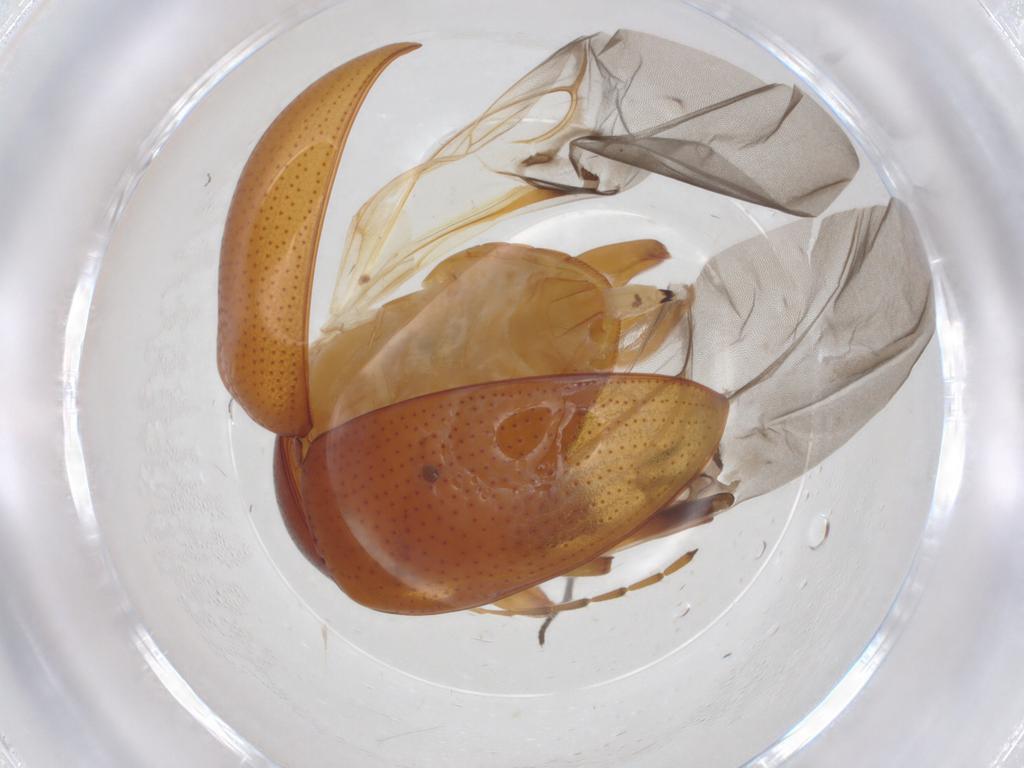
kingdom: Animalia
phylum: Arthropoda
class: Insecta
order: Coleoptera
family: Chrysomelidae
